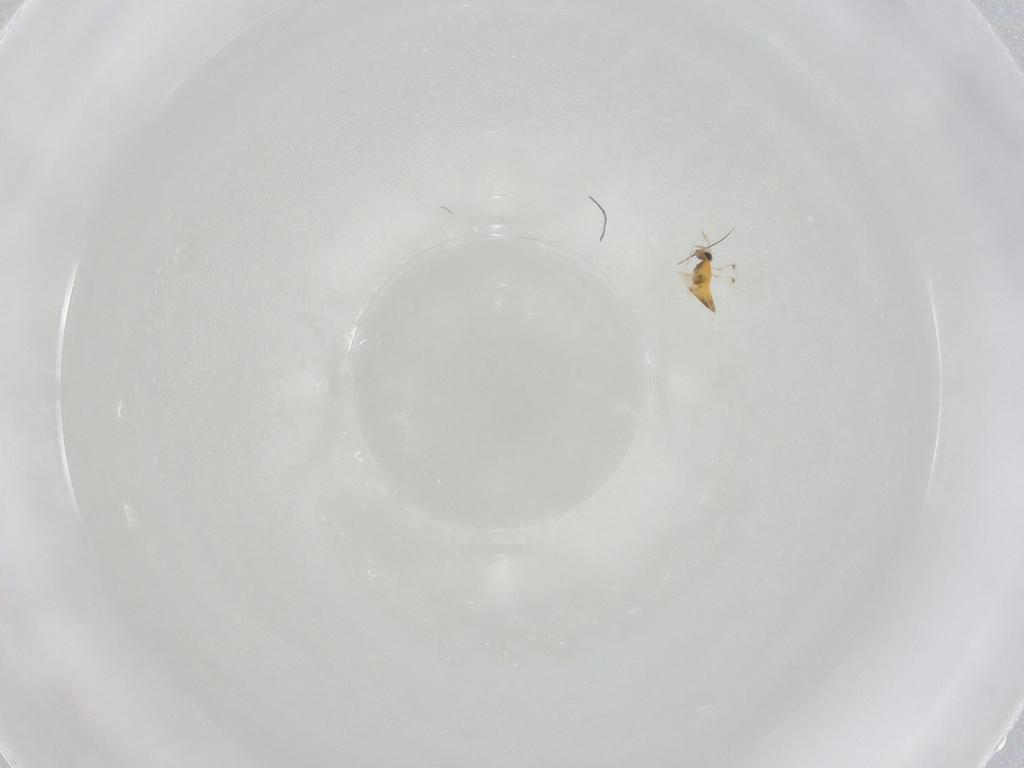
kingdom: Animalia
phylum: Arthropoda
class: Insecta
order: Hymenoptera
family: Trichogrammatidae
